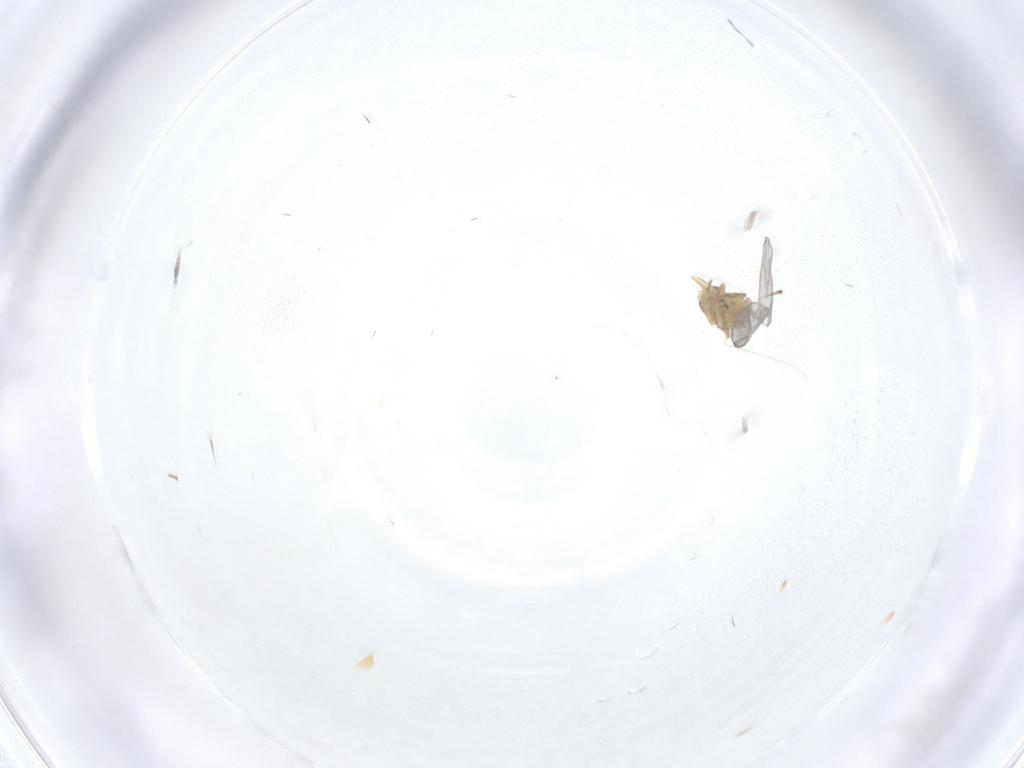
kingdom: Animalia
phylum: Arthropoda
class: Insecta
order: Diptera
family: Agromyzidae
